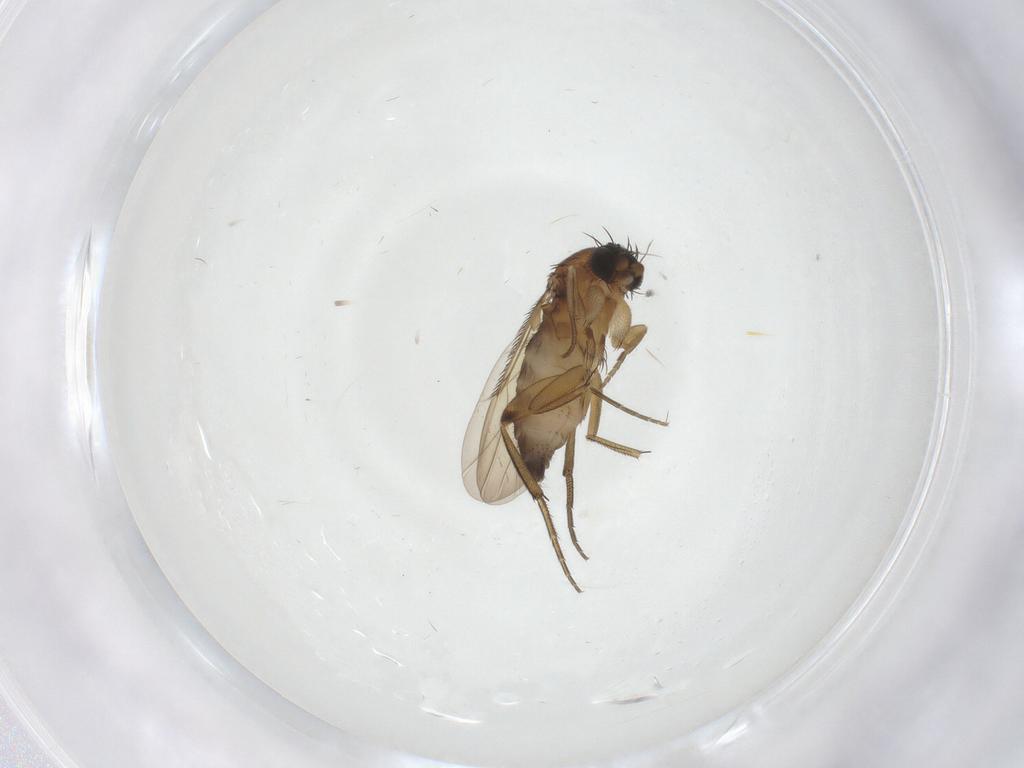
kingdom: Animalia
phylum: Arthropoda
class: Insecta
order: Diptera
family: Phoridae
